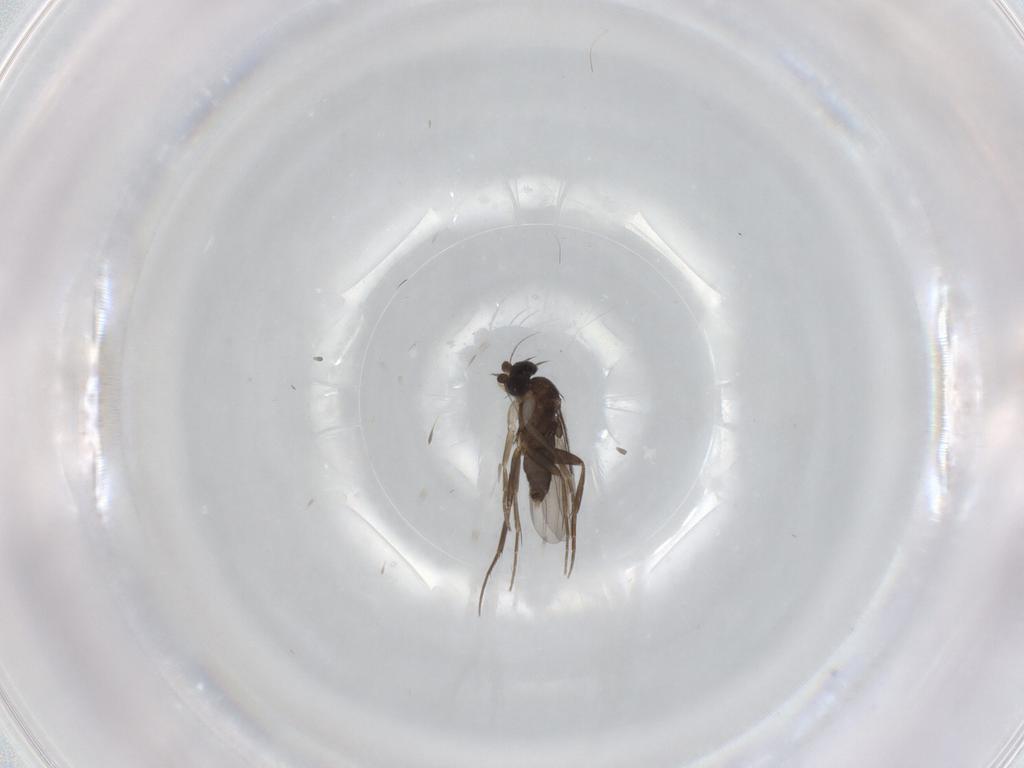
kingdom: Animalia
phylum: Arthropoda
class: Insecta
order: Diptera
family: Phoridae
